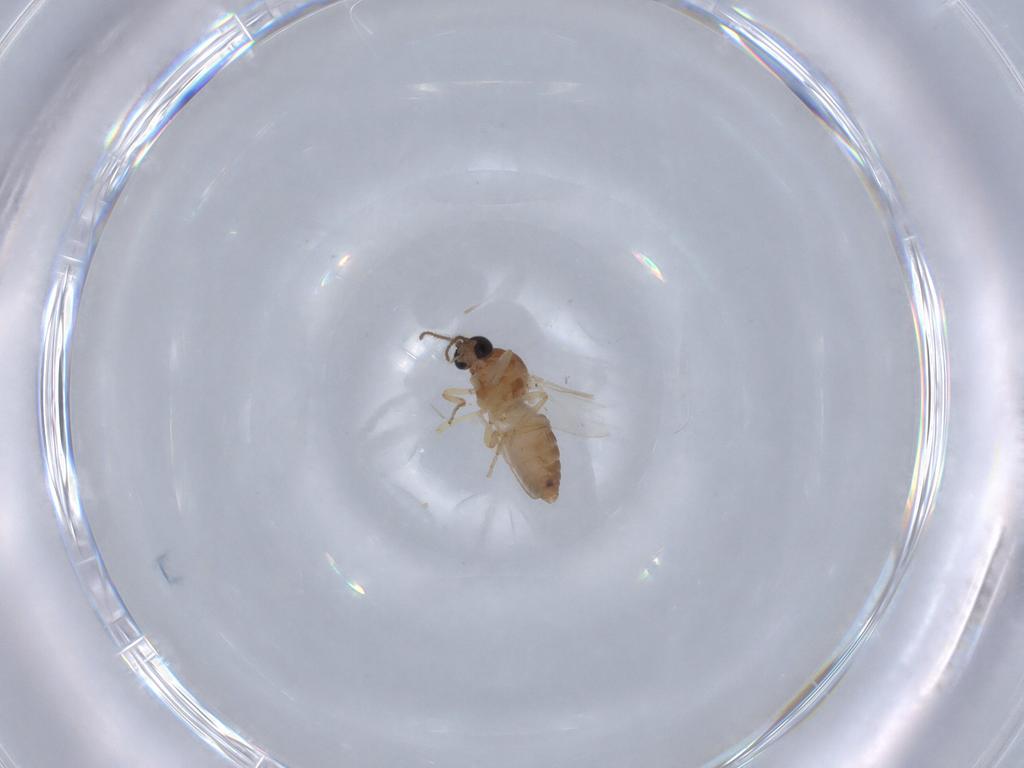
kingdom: Animalia
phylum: Arthropoda
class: Insecta
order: Diptera
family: Ceratopogonidae
